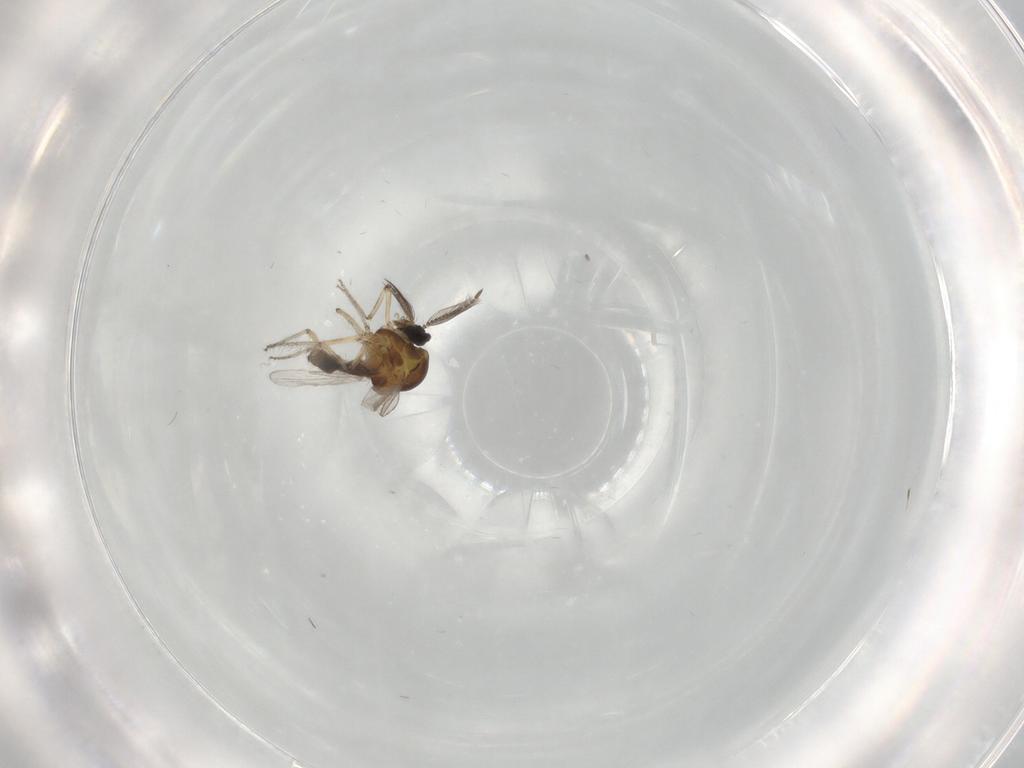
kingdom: Animalia
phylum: Arthropoda
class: Insecta
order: Diptera
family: Ceratopogonidae
